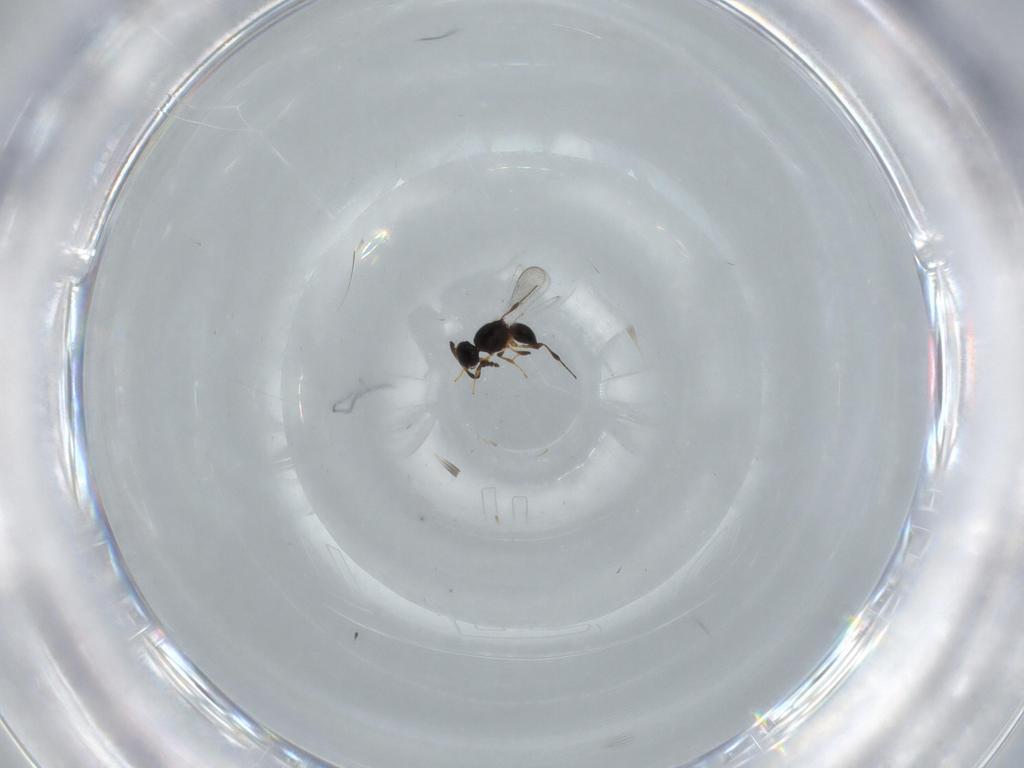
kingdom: Animalia
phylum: Arthropoda
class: Insecta
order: Hymenoptera
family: Platygastridae
